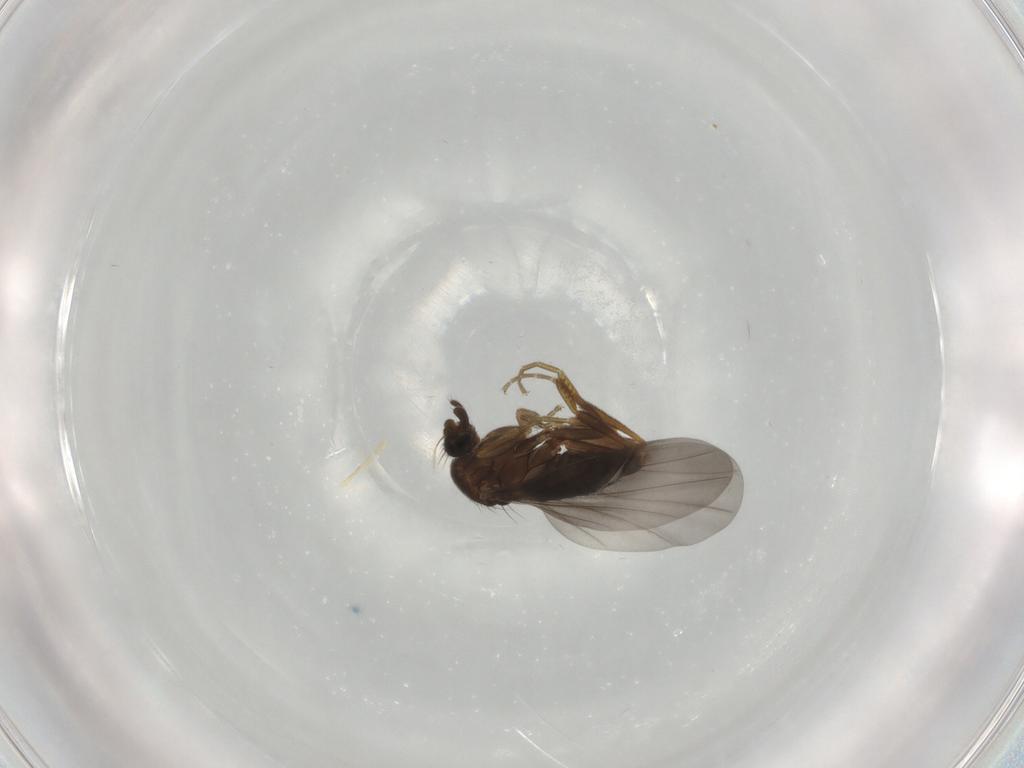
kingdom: Animalia
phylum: Arthropoda
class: Insecta
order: Diptera
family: Phoridae
